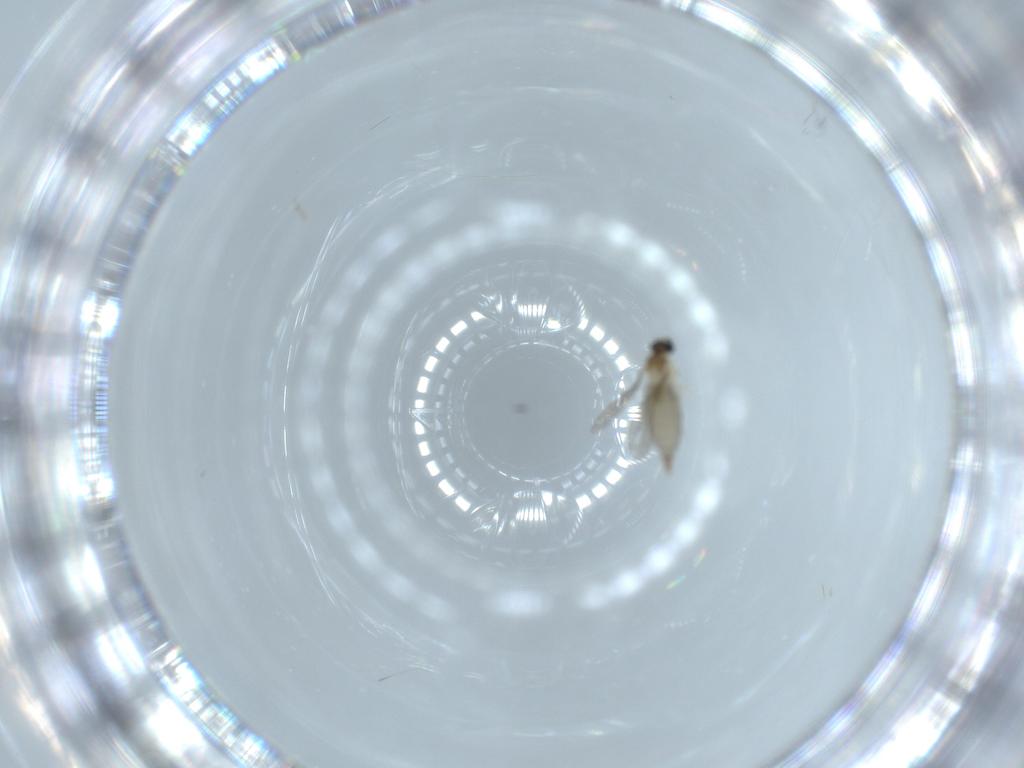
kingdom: Animalia
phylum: Arthropoda
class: Insecta
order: Diptera
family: Cecidomyiidae
